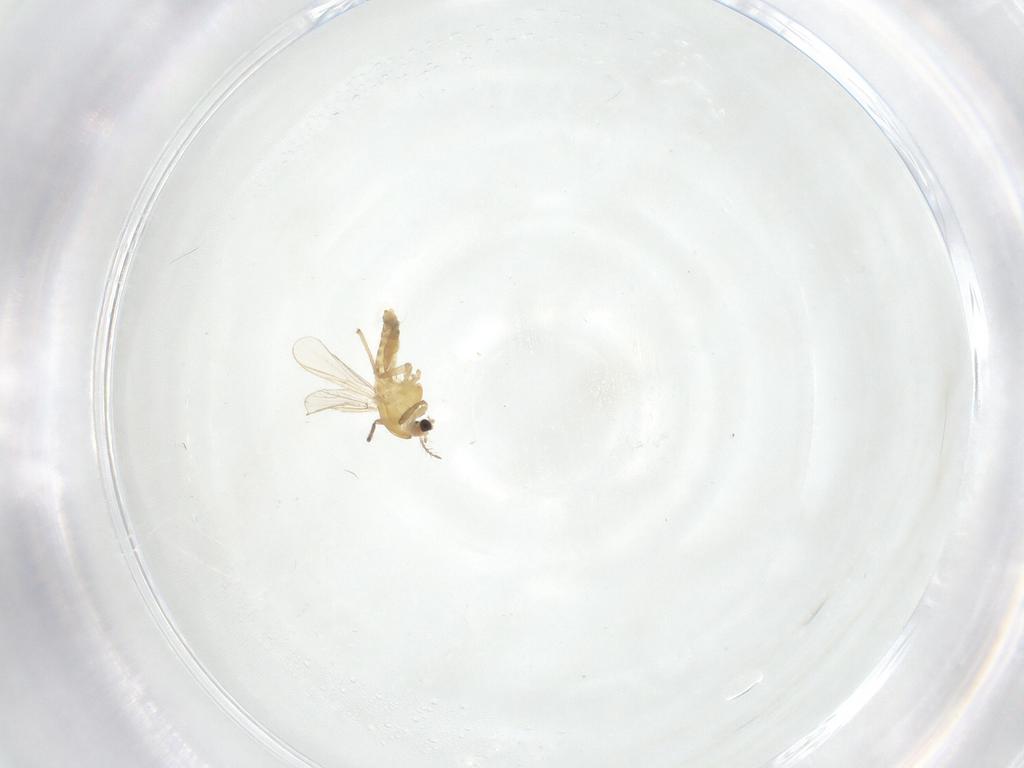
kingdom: Animalia
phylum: Arthropoda
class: Insecta
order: Diptera
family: Chironomidae
